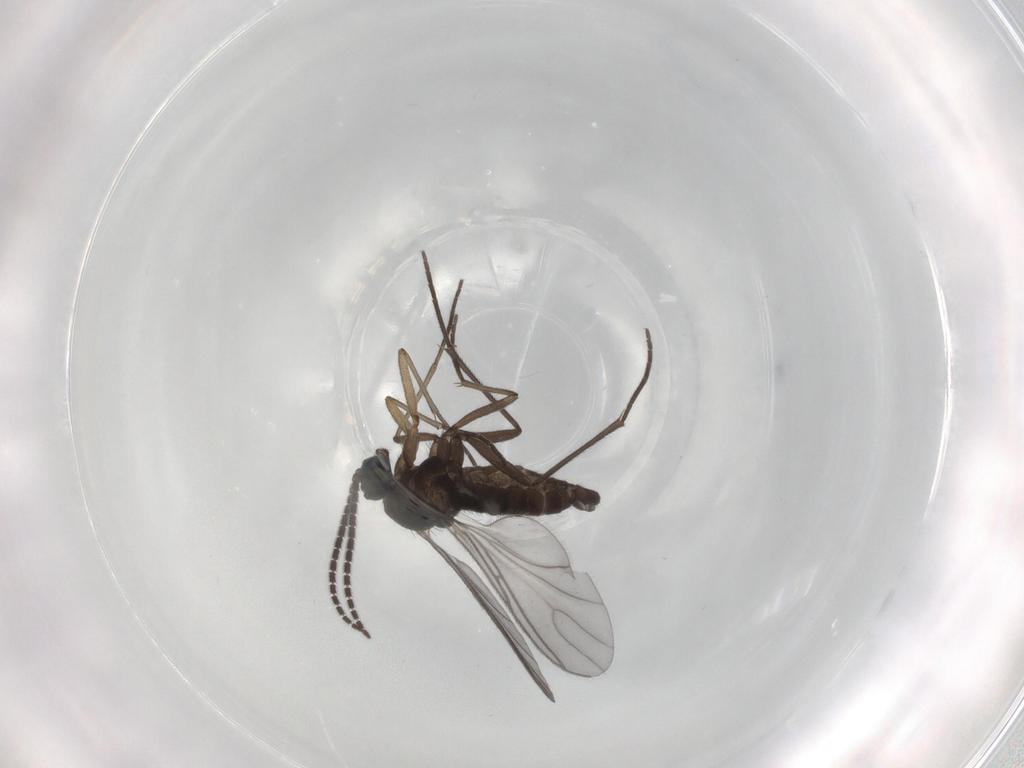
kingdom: Animalia
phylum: Arthropoda
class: Insecta
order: Diptera
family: Sciaridae
